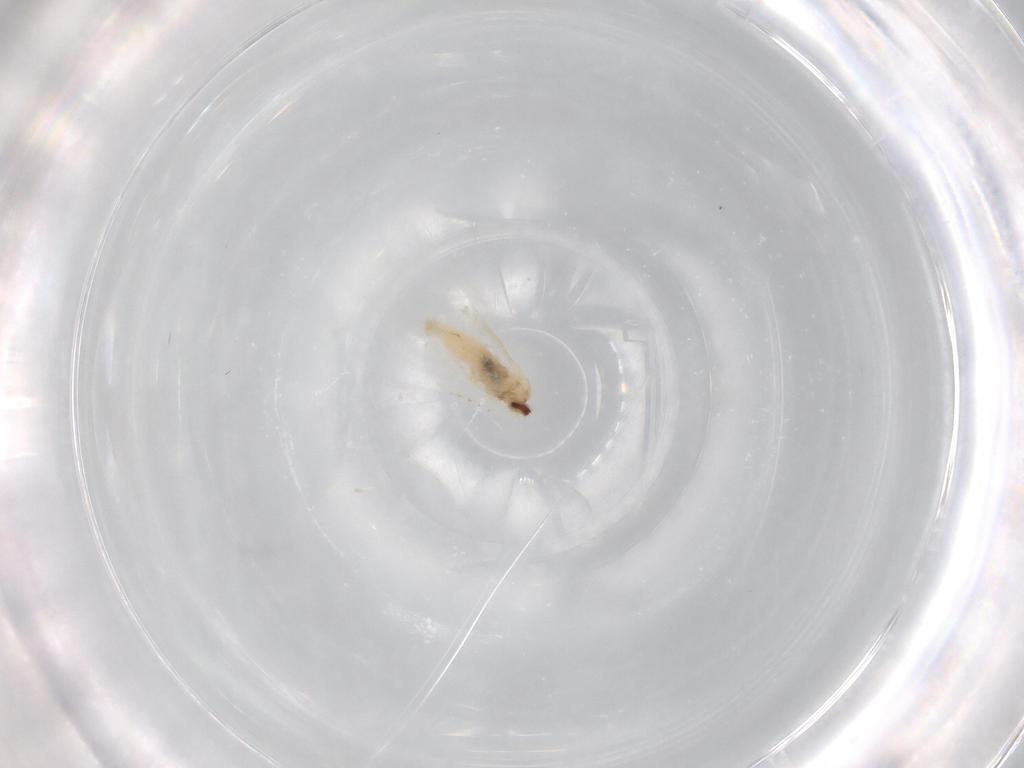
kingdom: Animalia
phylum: Arthropoda
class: Insecta
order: Diptera
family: Cecidomyiidae
